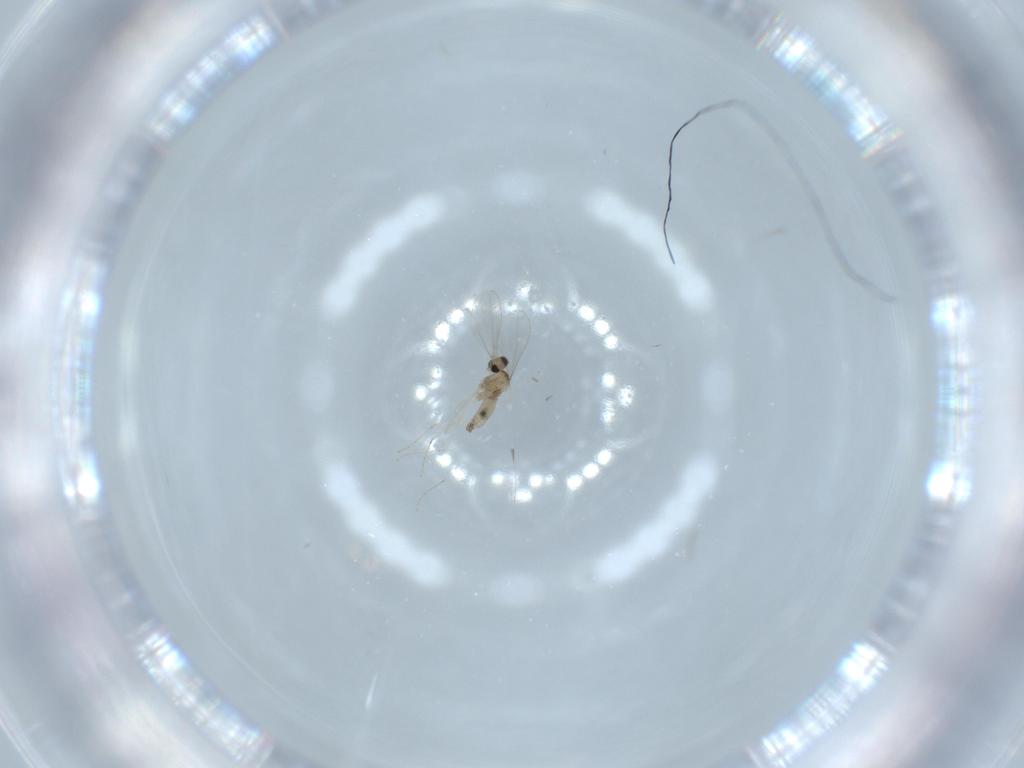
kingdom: Animalia
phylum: Arthropoda
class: Insecta
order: Diptera
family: Sciaridae
